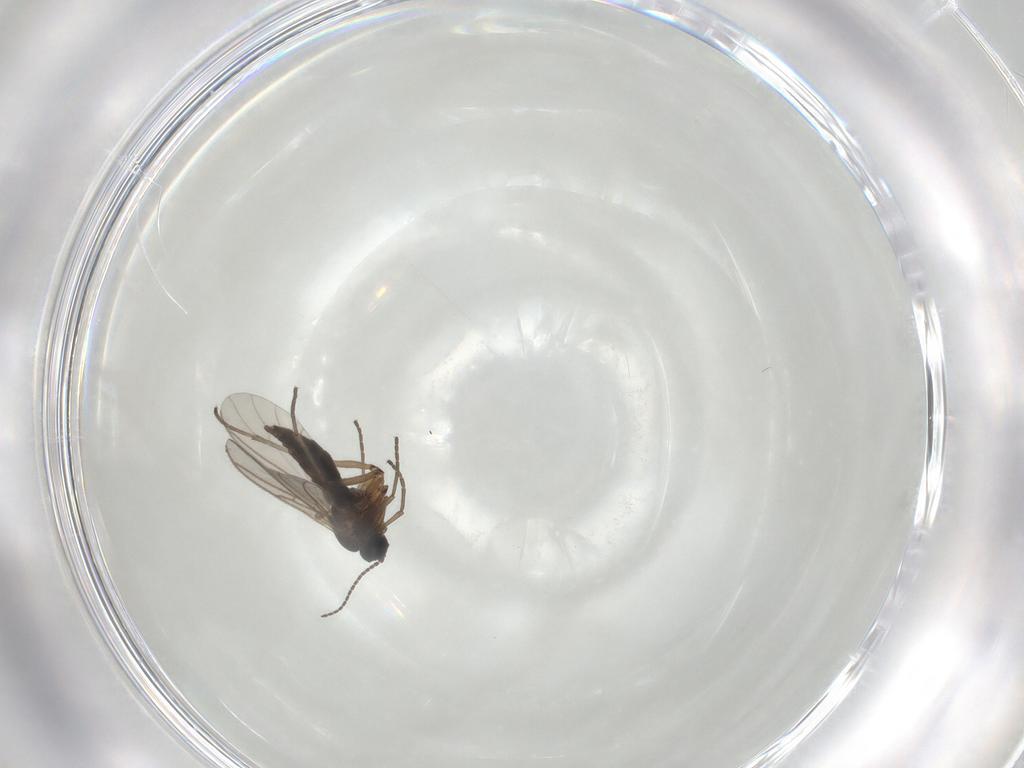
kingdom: Animalia
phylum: Arthropoda
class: Insecta
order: Diptera
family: Sciaridae
